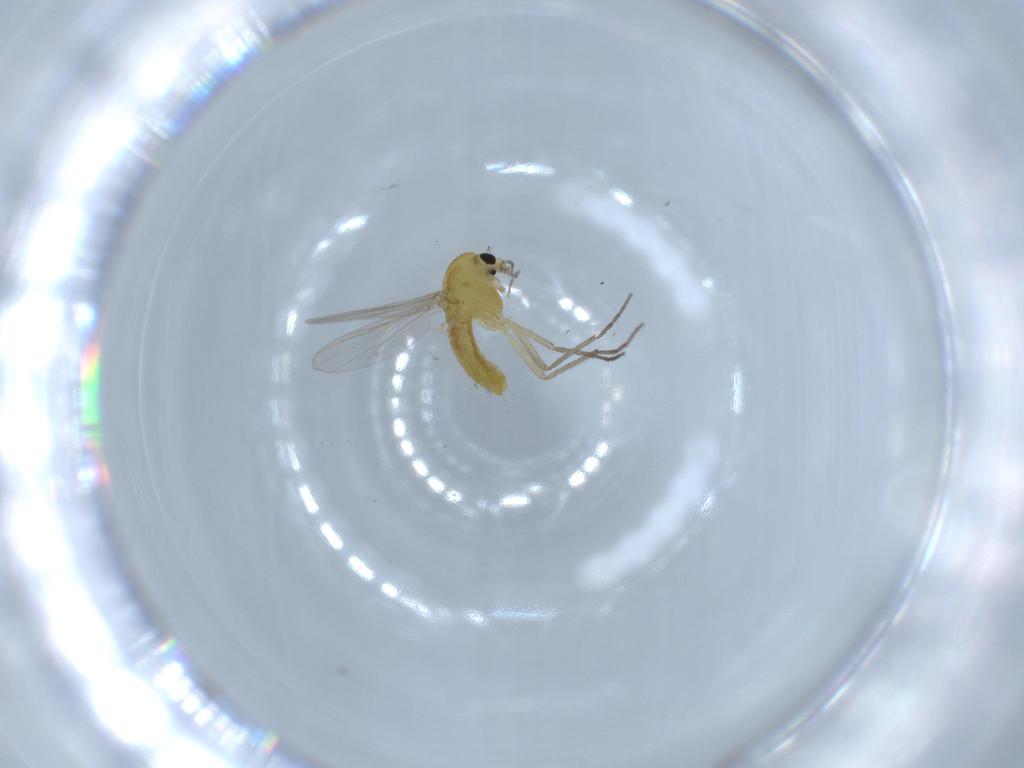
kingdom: Animalia
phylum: Arthropoda
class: Insecta
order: Diptera
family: Chironomidae
